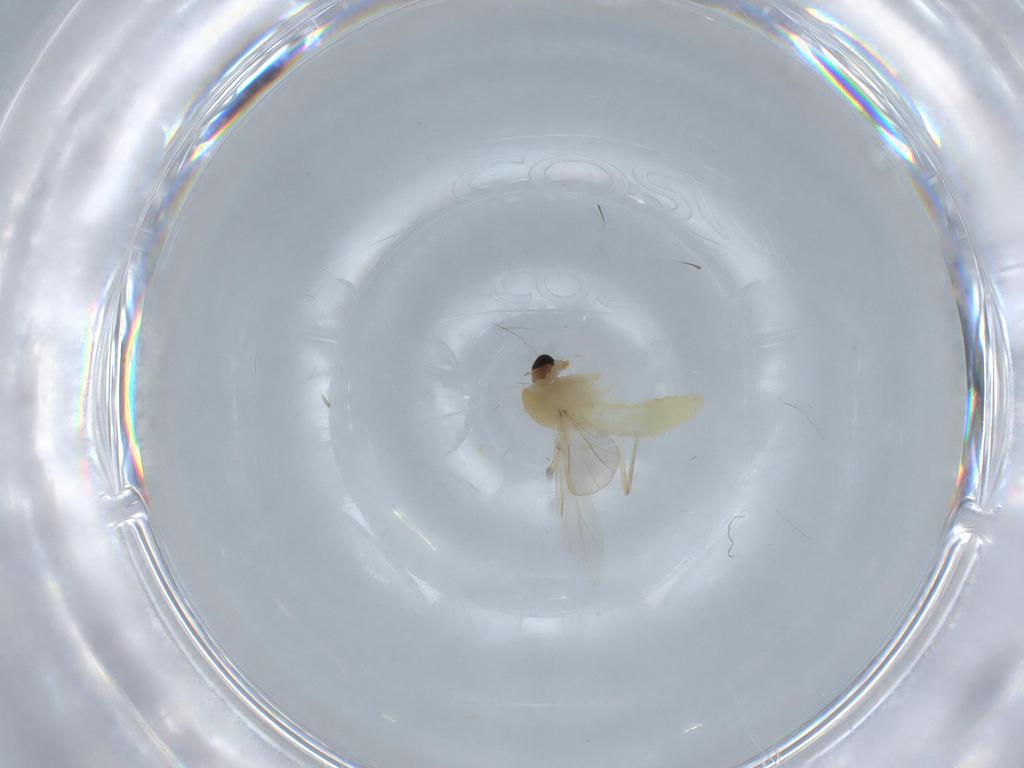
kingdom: Animalia
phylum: Arthropoda
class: Insecta
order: Diptera
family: Chironomidae
